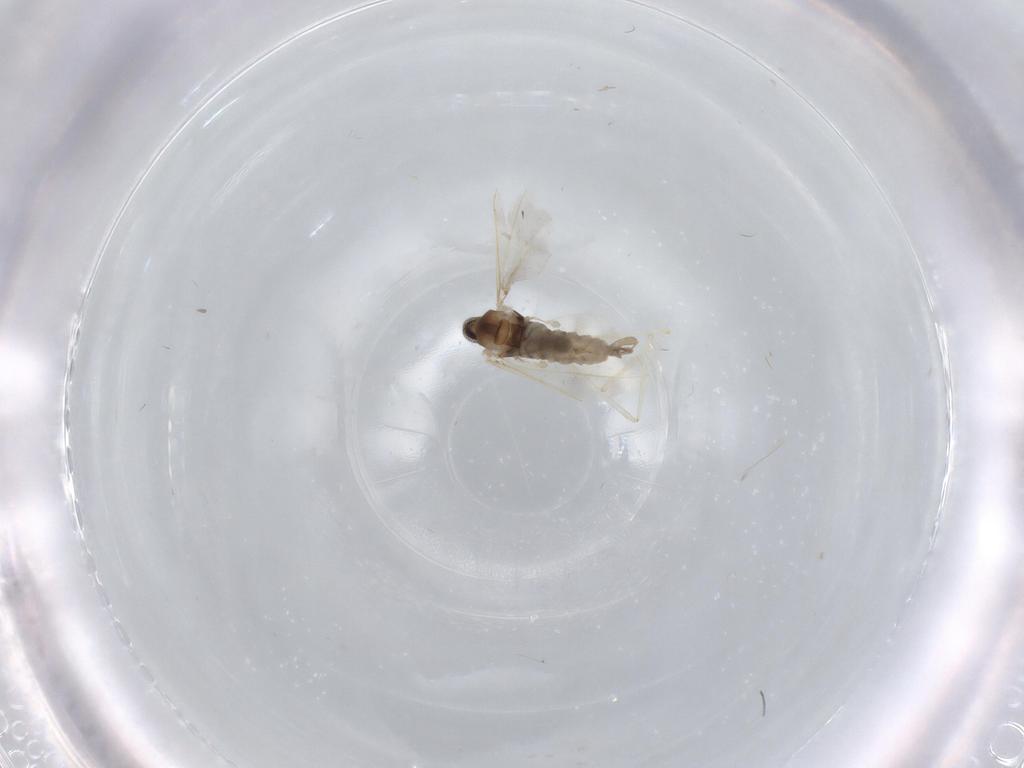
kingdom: Animalia
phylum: Arthropoda
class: Insecta
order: Diptera
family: Cecidomyiidae
